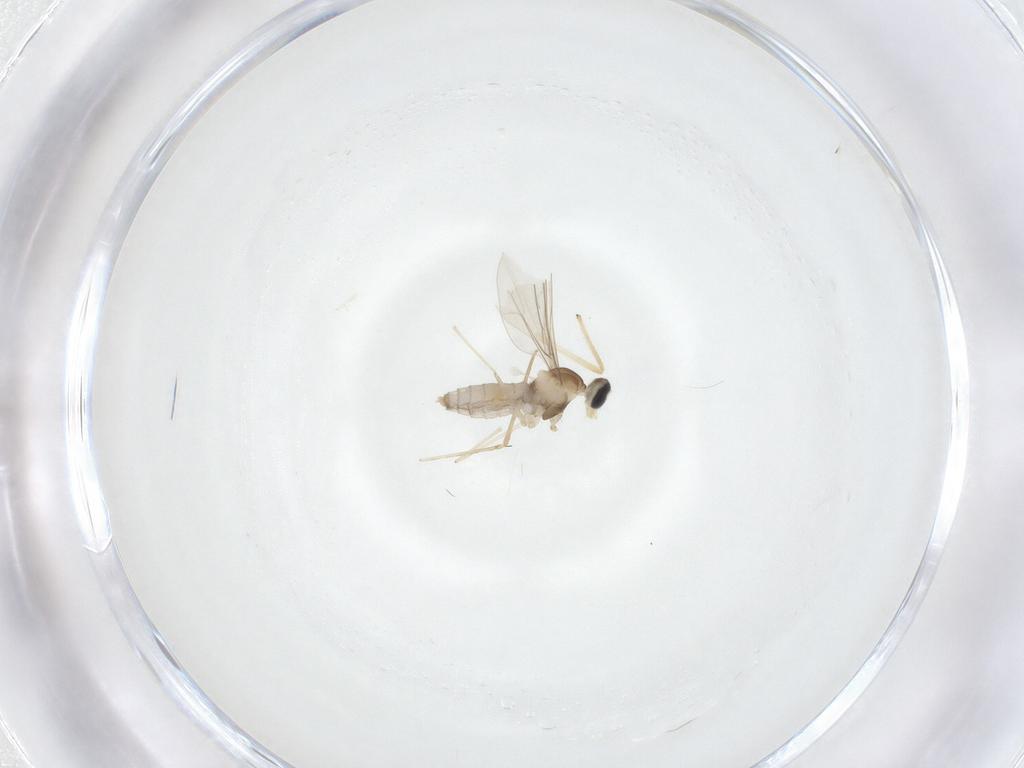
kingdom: Animalia
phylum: Arthropoda
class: Insecta
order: Diptera
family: Cecidomyiidae
